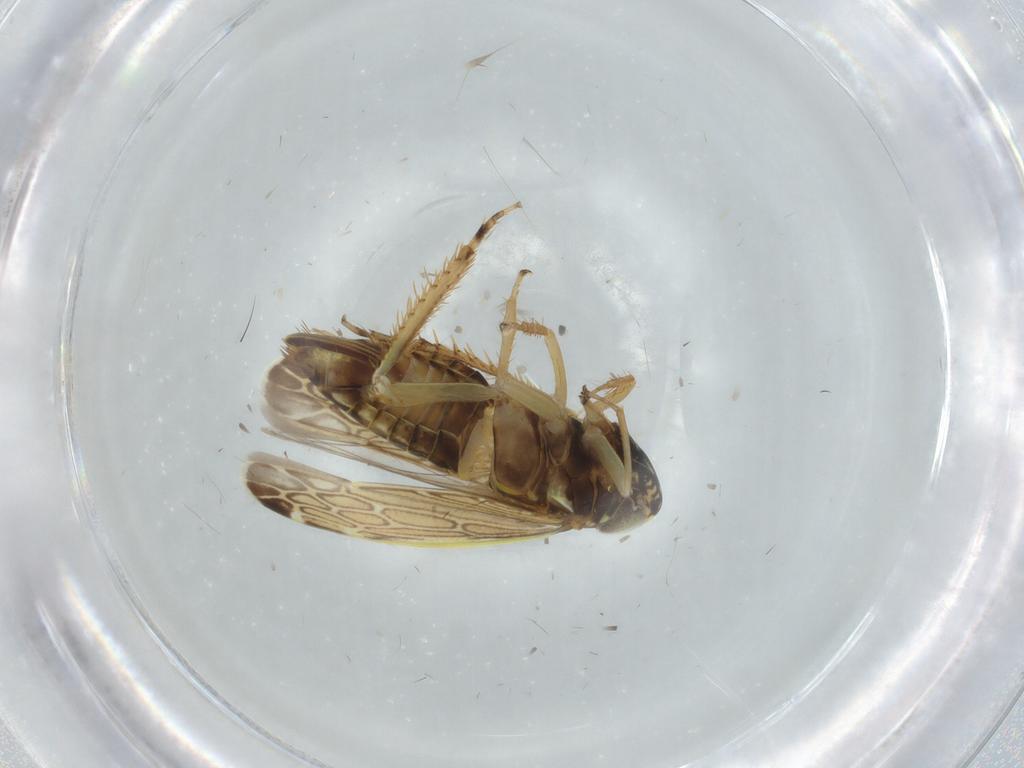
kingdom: Animalia
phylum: Arthropoda
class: Insecta
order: Hemiptera
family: Cicadellidae
